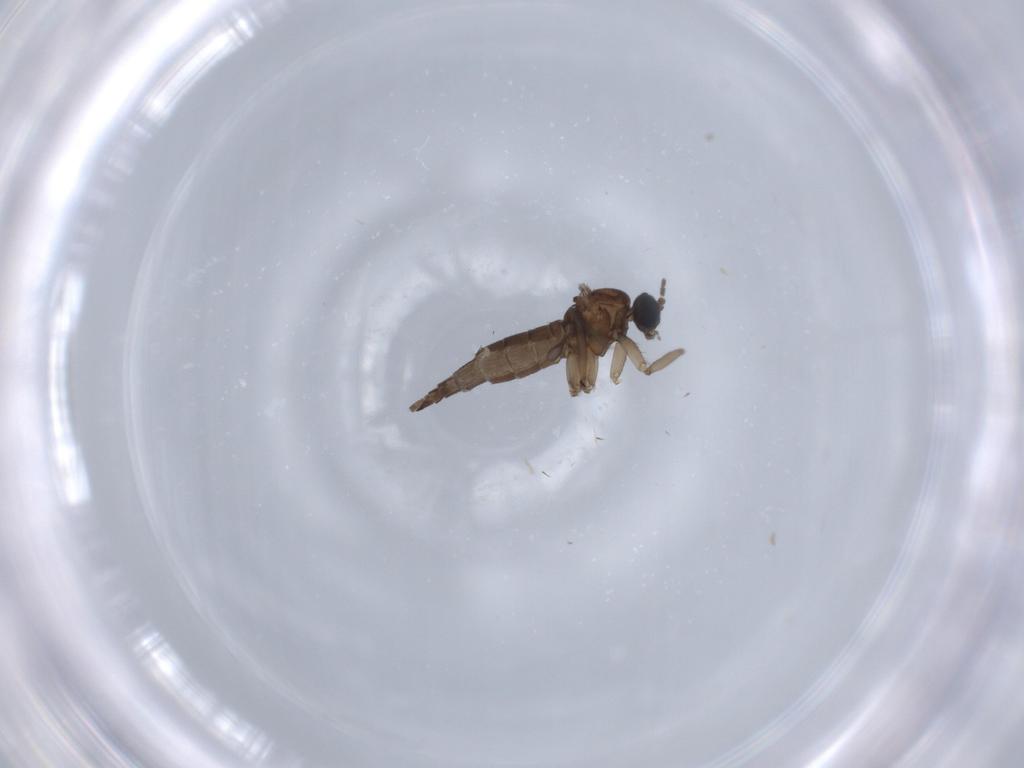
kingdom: Animalia
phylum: Arthropoda
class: Insecta
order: Diptera
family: Sciaridae
